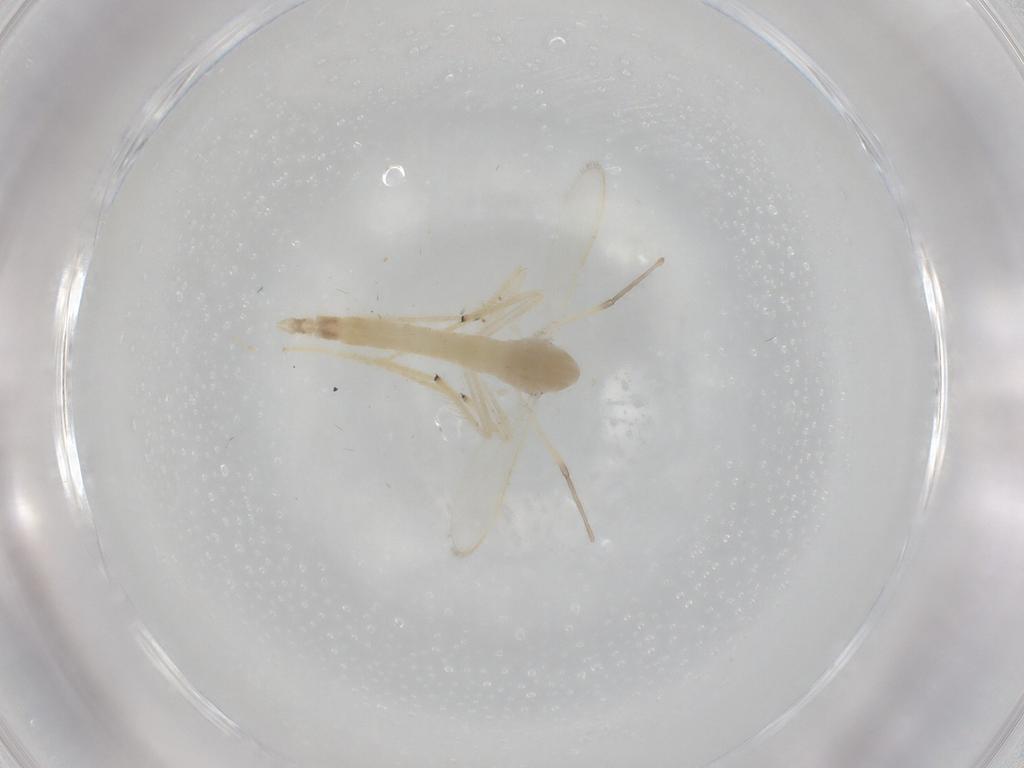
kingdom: Animalia
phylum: Arthropoda
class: Insecta
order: Diptera
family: Chironomidae
